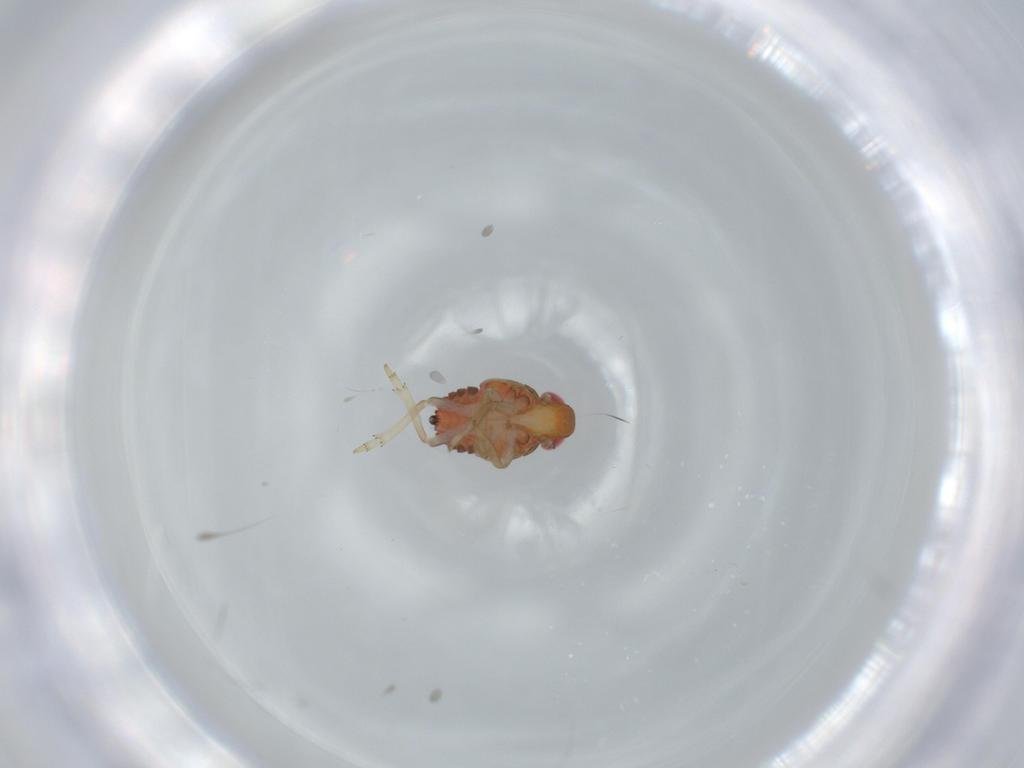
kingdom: Animalia
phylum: Arthropoda
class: Insecta
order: Hemiptera
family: Issidae
